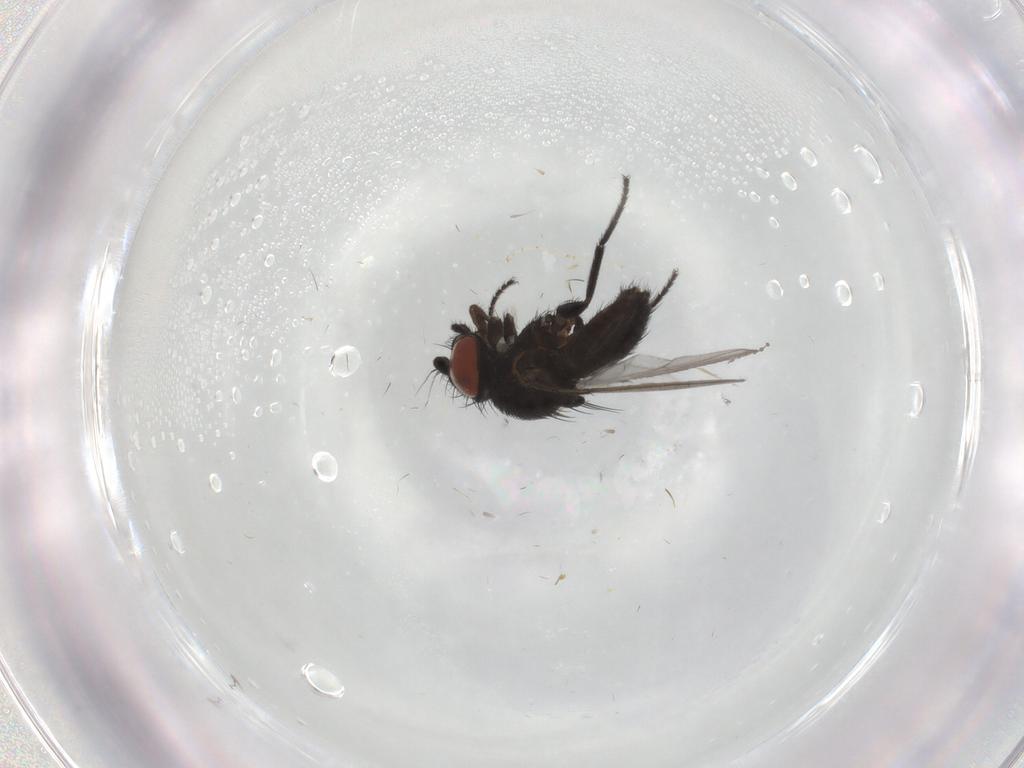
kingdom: Animalia
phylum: Arthropoda
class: Insecta
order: Diptera
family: Milichiidae
